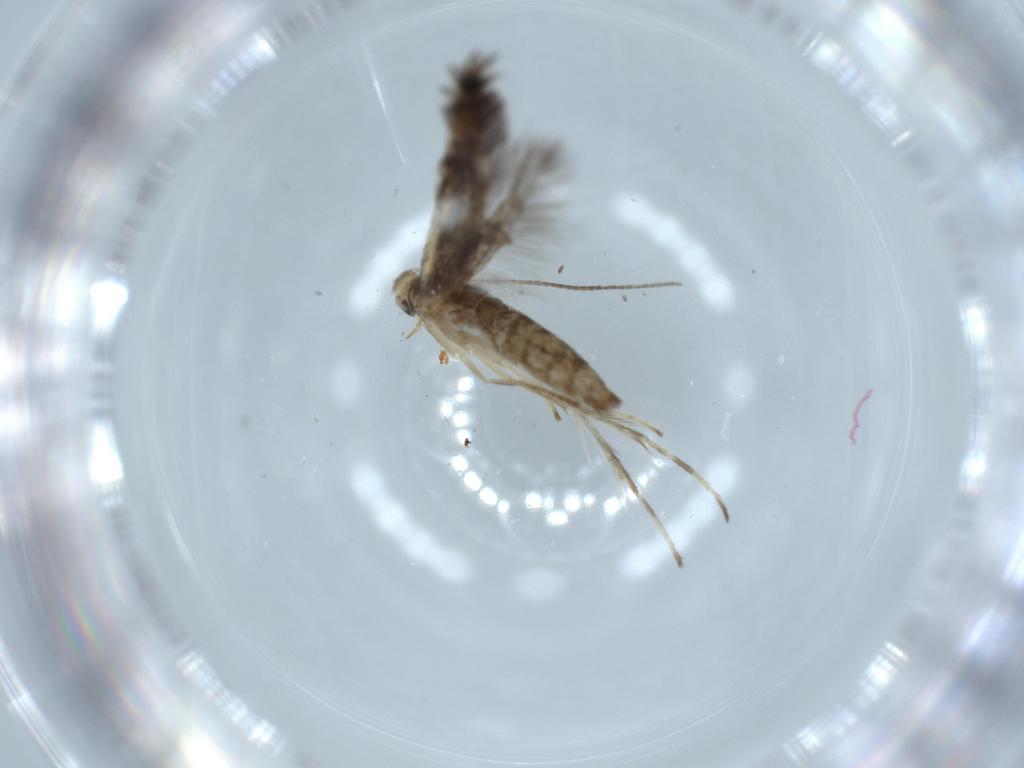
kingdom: Animalia
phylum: Arthropoda
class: Insecta
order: Lepidoptera
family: Nepticulidae
